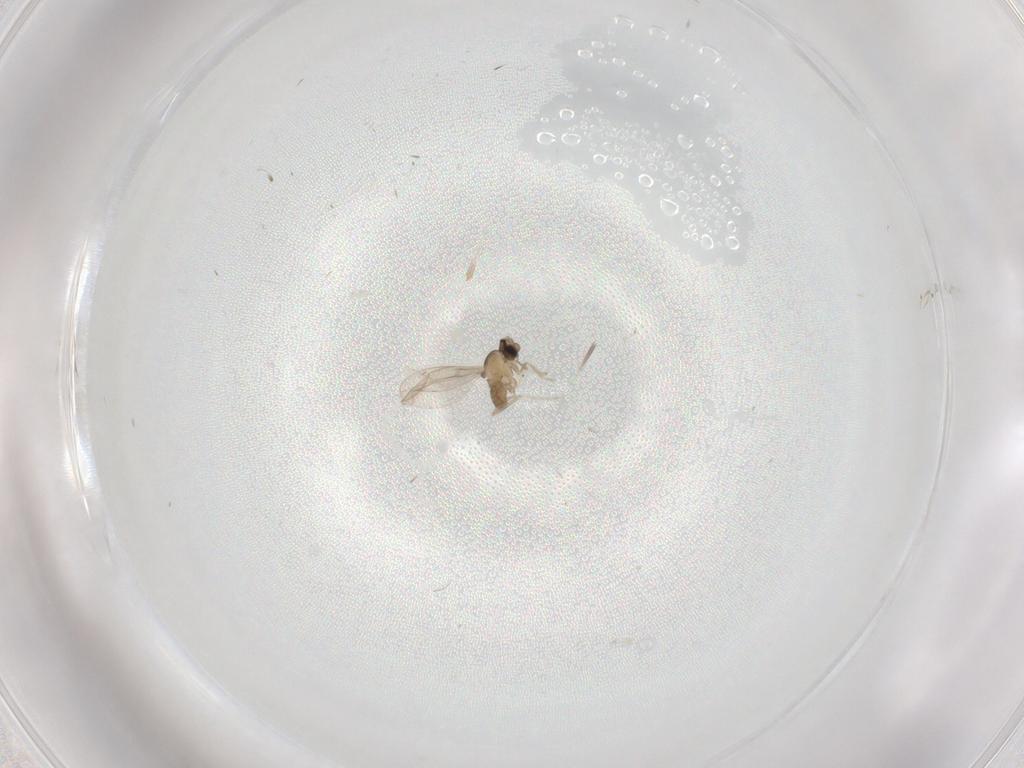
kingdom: Animalia
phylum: Arthropoda
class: Insecta
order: Diptera
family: Cecidomyiidae
